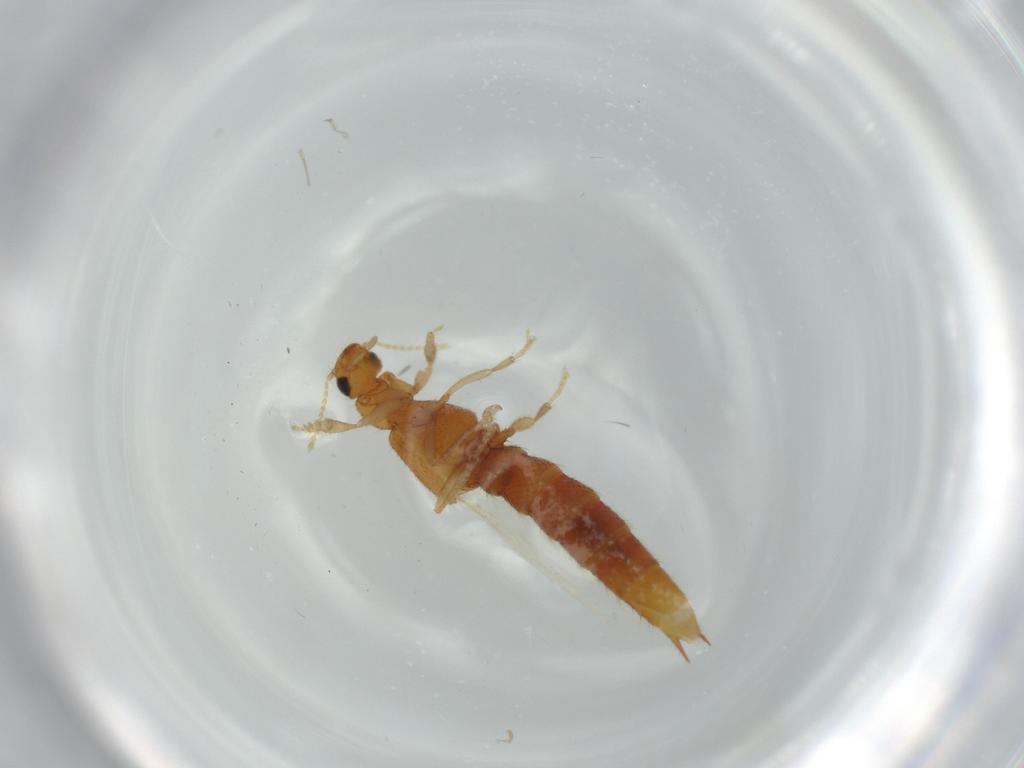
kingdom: Animalia
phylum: Arthropoda
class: Insecta
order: Coleoptera
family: Staphylinidae
